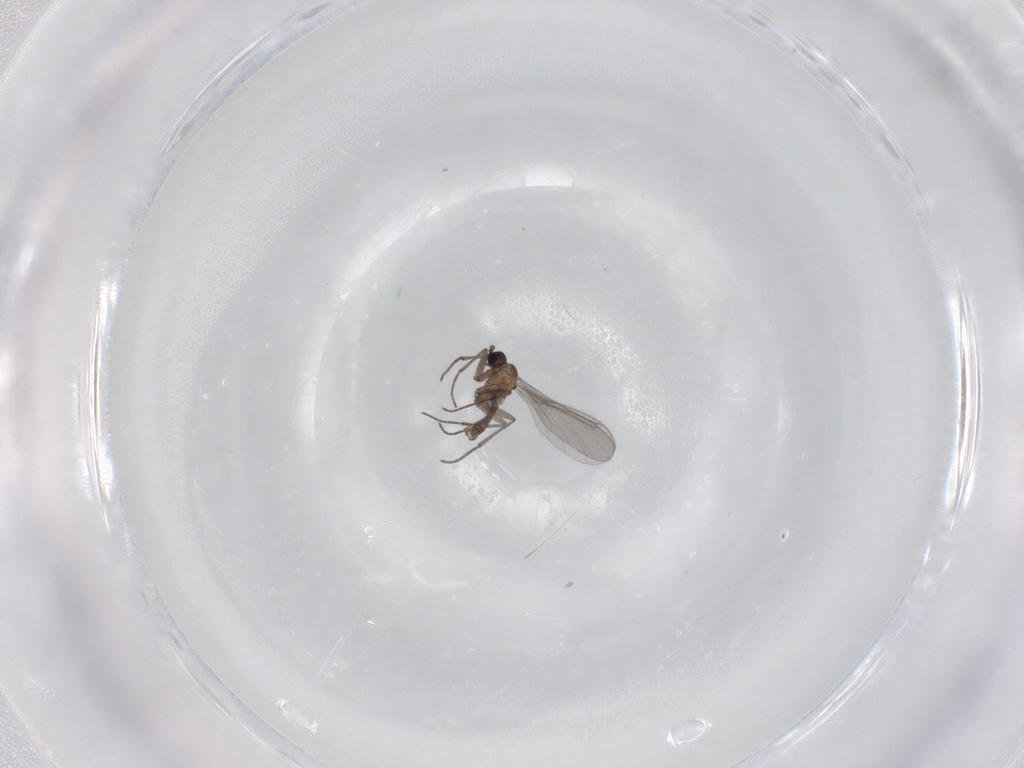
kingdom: Animalia
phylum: Arthropoda
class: Insecta
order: Diptera
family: Sciaridae
